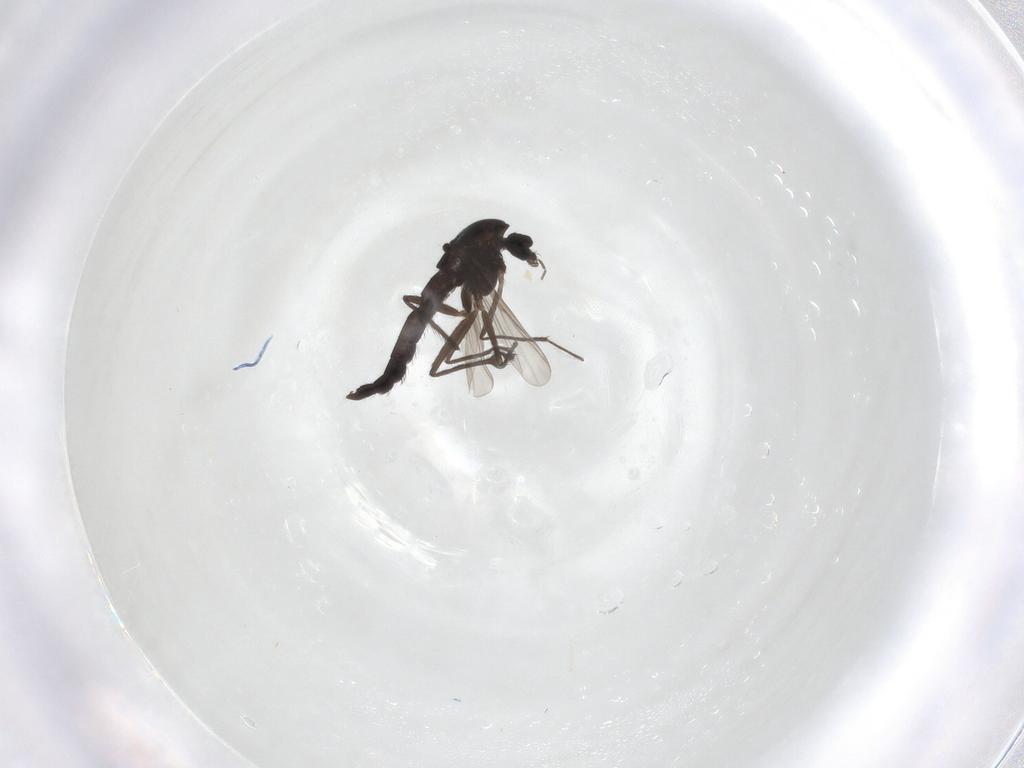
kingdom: Animalia
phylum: Arthropoda
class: Insecta
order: Diptera
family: Chironomidae
